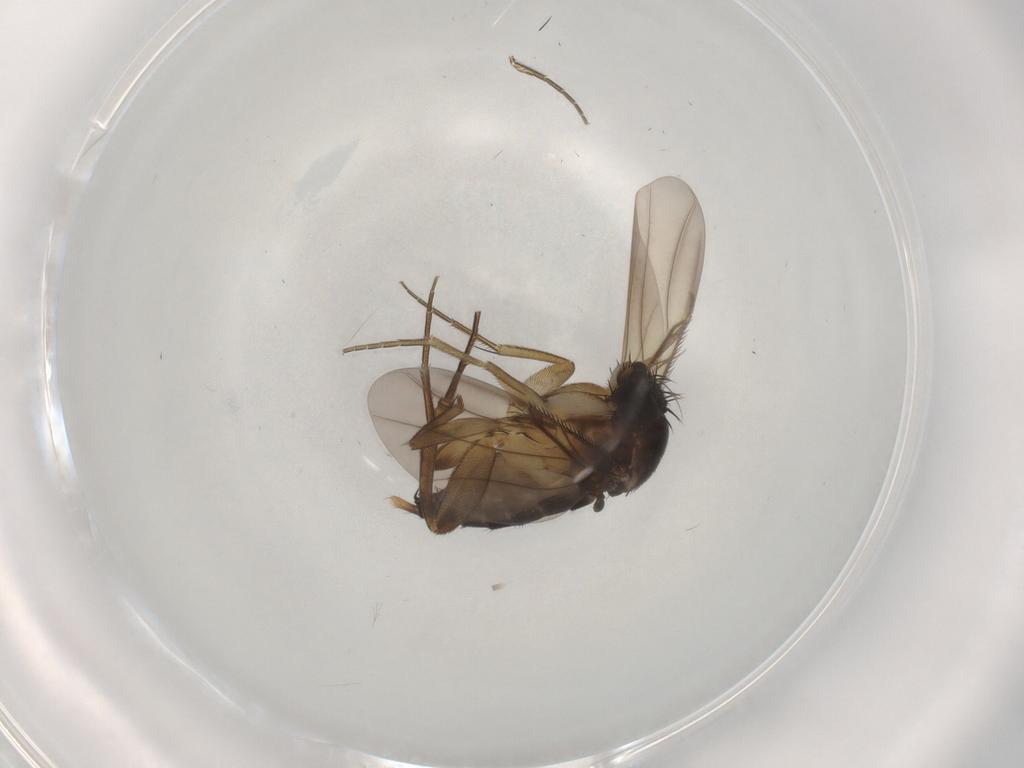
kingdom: Animalia
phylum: Arthropoda
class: Insecta
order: Diptera
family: Phoridae
